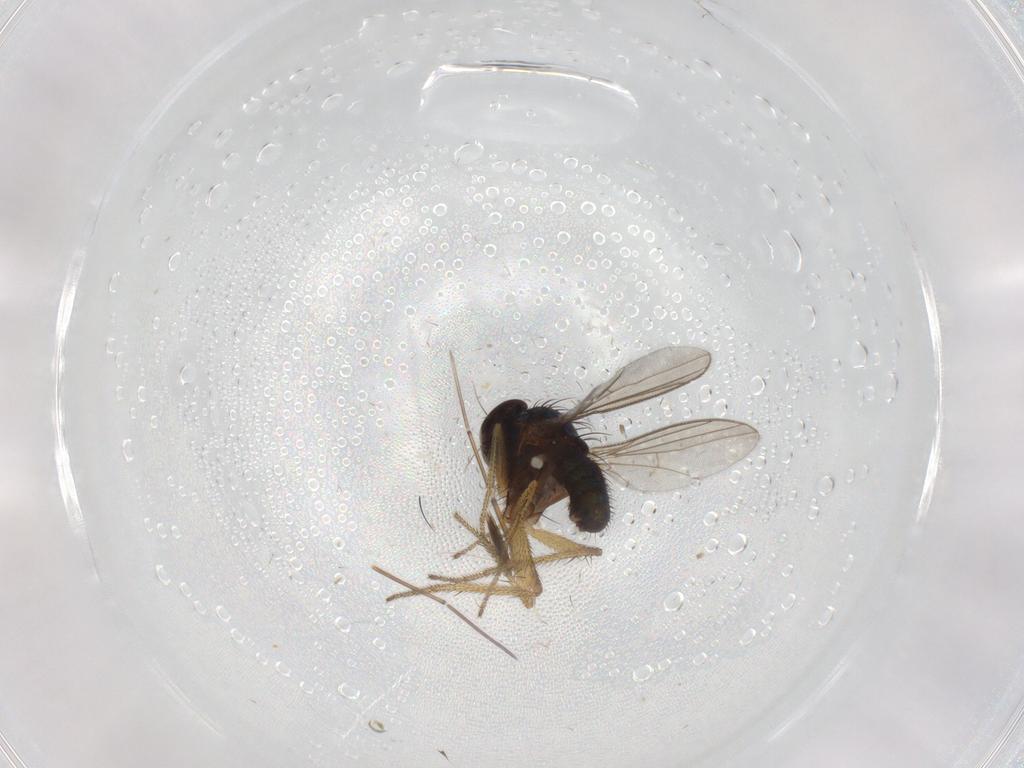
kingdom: Animalia
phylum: Arthropoda
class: Insecta
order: Diptera
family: Dolichopodidae
